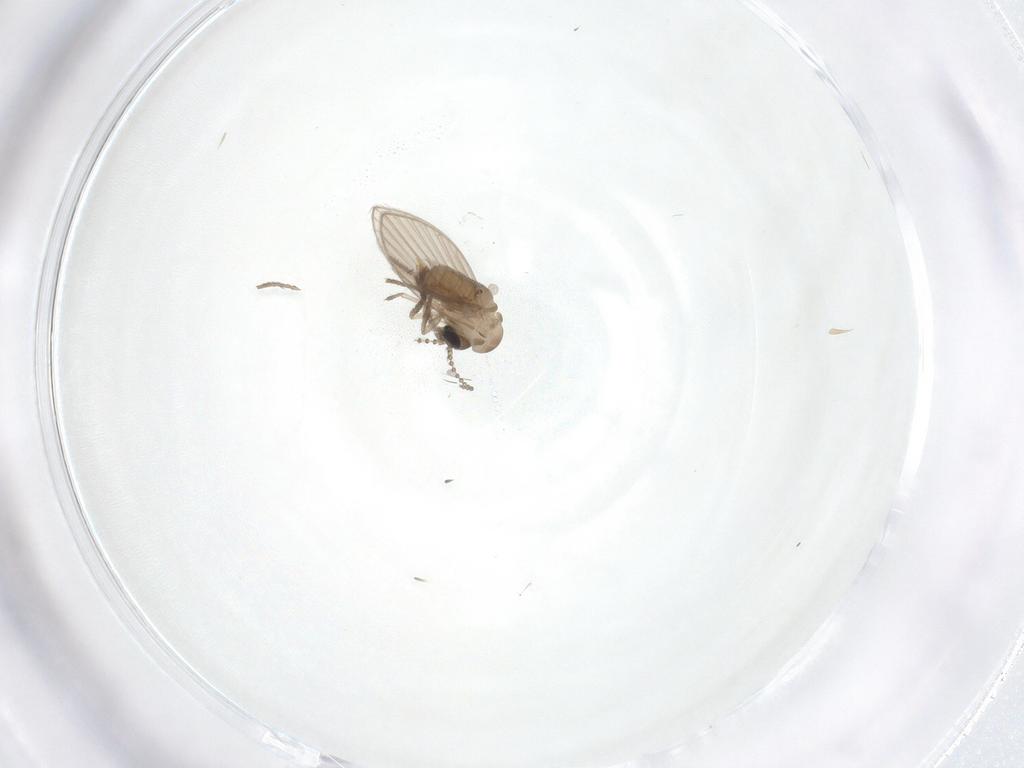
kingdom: Animalia
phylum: Arthropoda
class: Insecta
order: Diptera
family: Psychodidae
